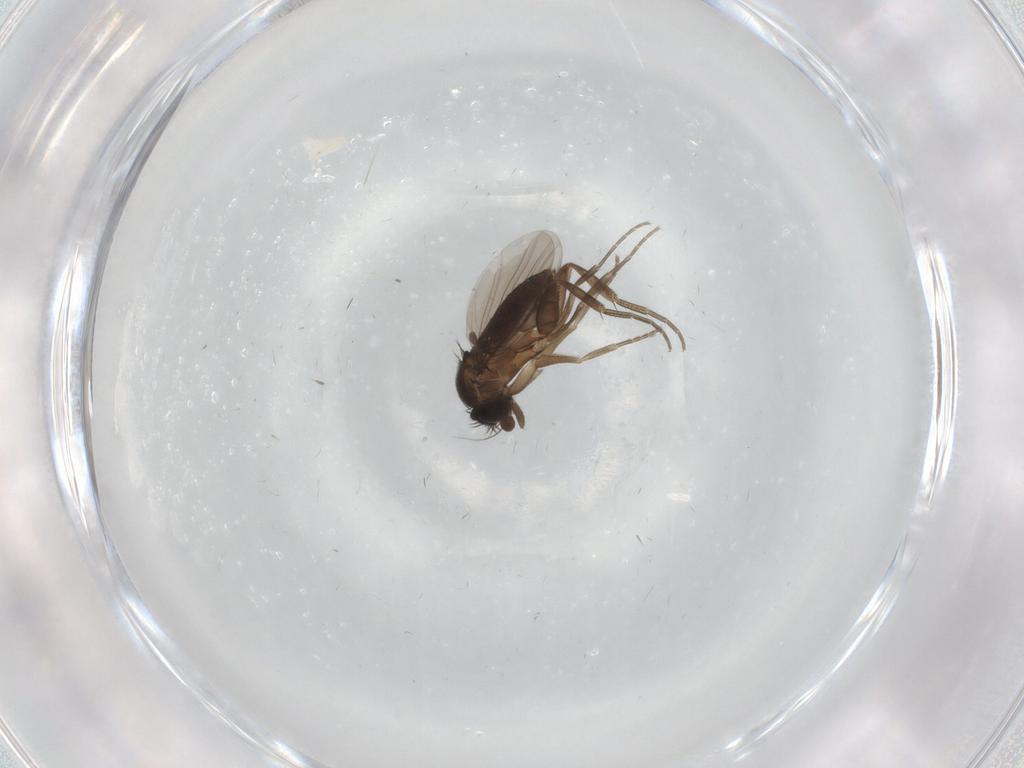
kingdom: Animalia
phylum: Arthropoda
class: Insecta
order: Diptera
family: Phoridae
